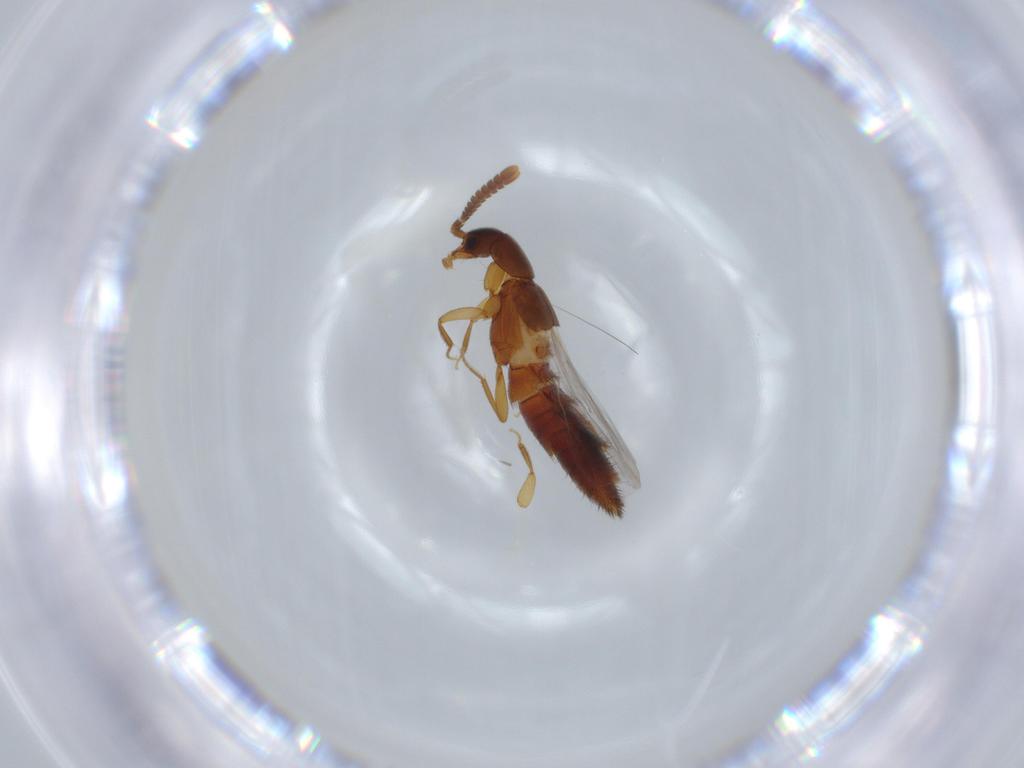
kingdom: Animalia
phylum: Arthropoda
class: Insecta
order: Coleoptera
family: Staphylinidae
